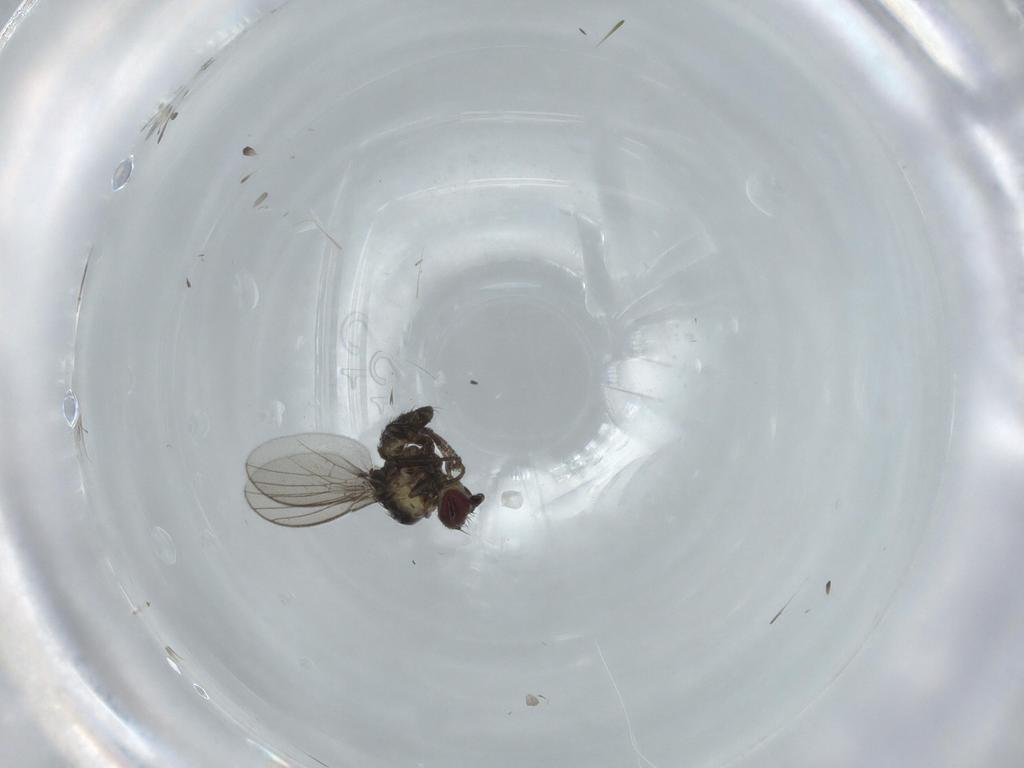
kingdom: Animalia
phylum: Arthropoda
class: Insecta
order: Diptera
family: Agromyzidae
